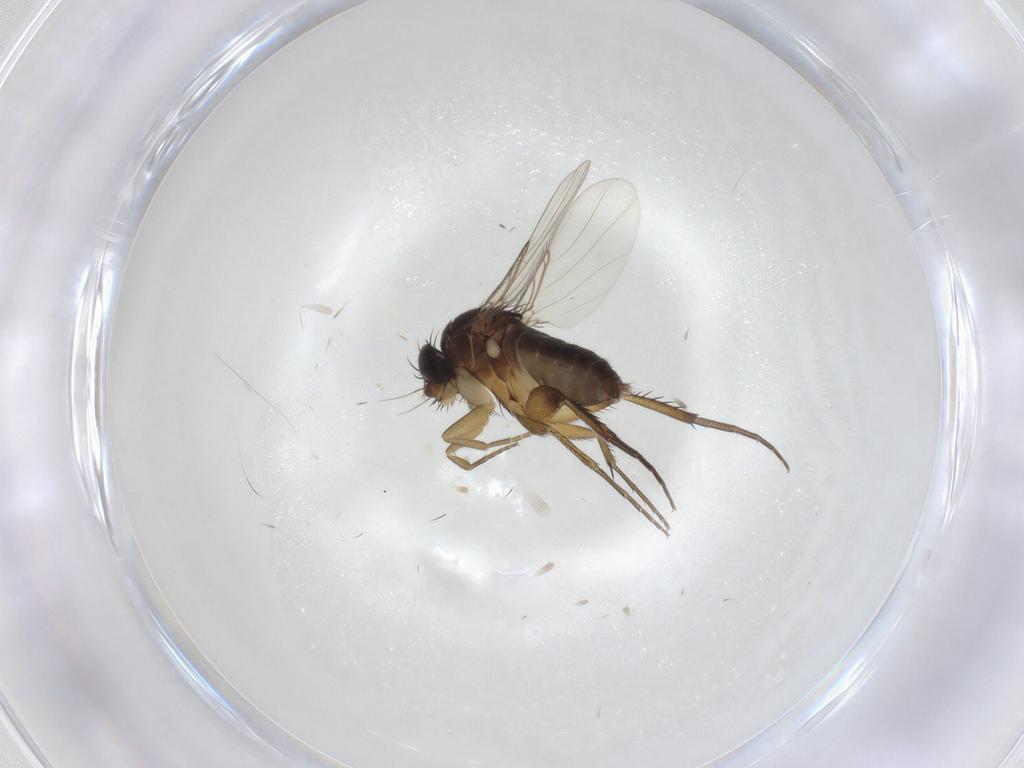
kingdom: Animalia
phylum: Arthropoda
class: Insecta
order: Diptera
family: Phoridae
